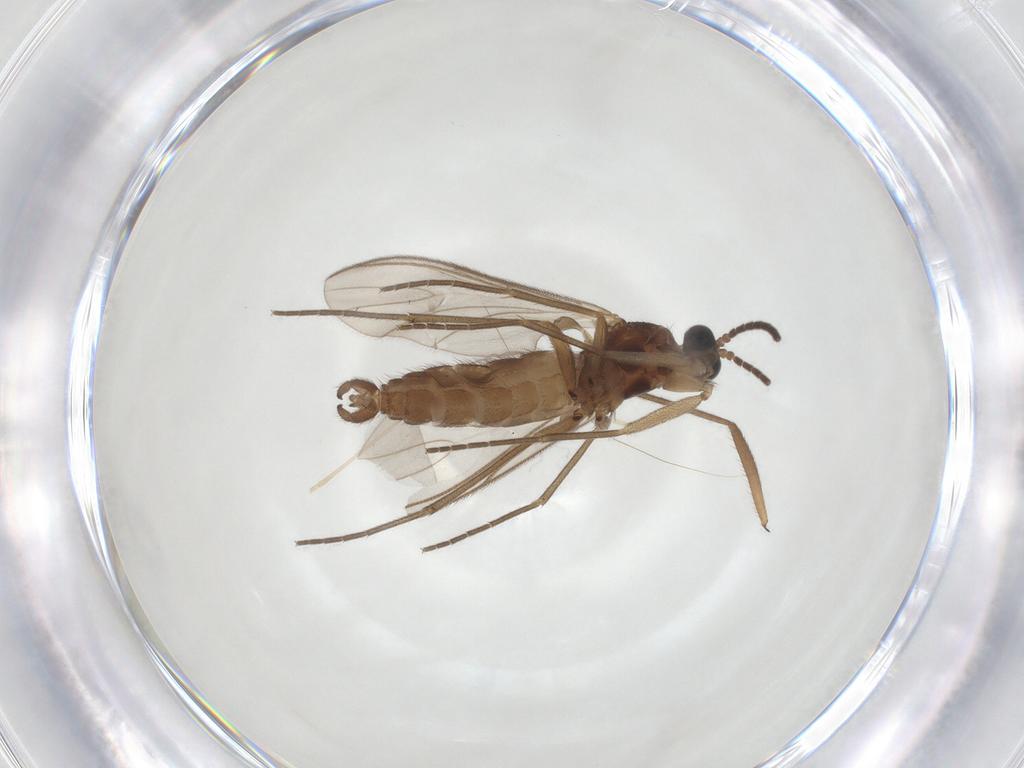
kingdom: Animalia
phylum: Arthropoda
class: Insecta
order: Diptera
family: Sciaridae
